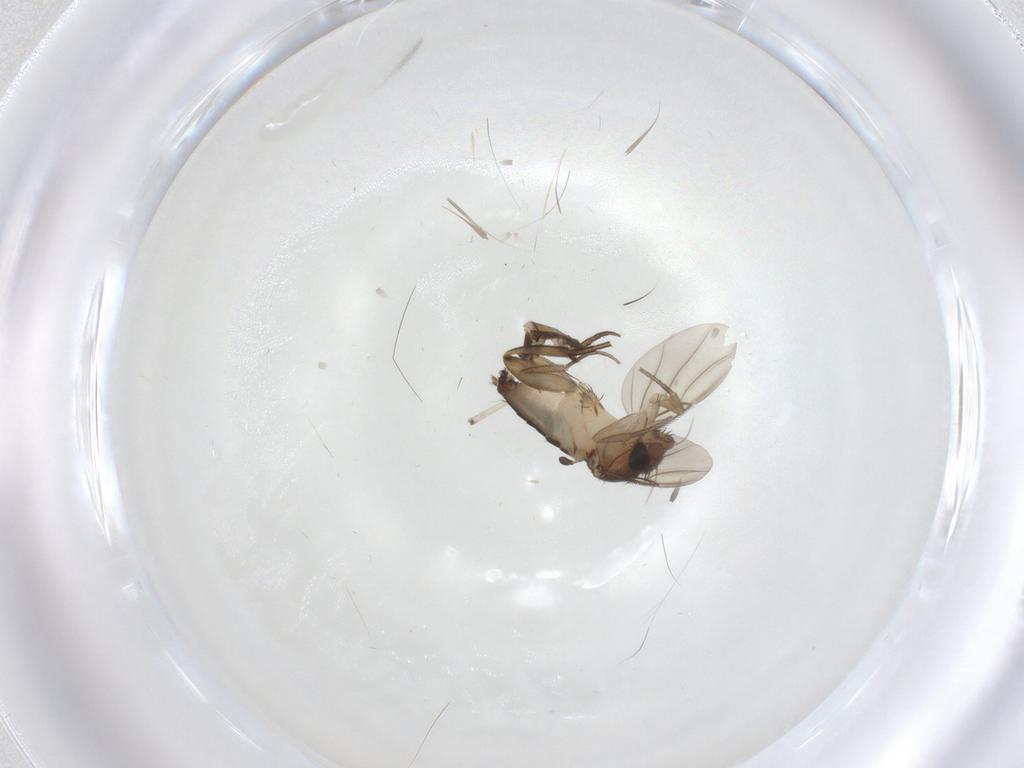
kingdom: Animalia
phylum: Arthropoda
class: Insecta
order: Diptera
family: Phoridae
